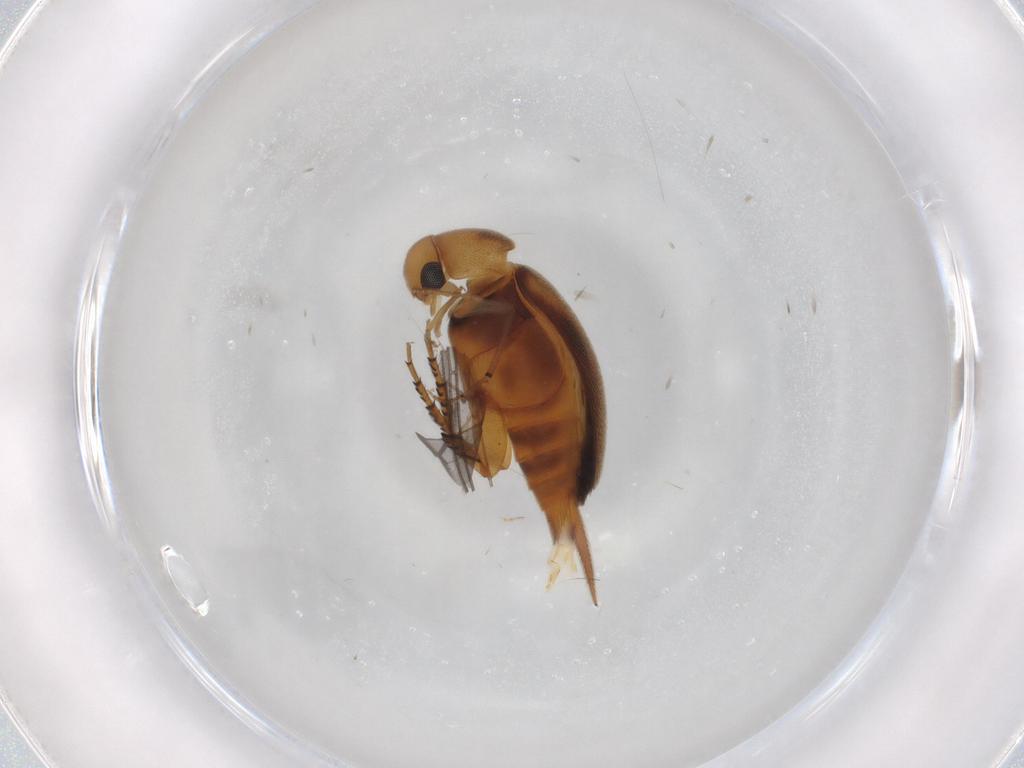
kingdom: Animalia
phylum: Arthropoda
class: Insecta
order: Coleoptera
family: Mordellidae
